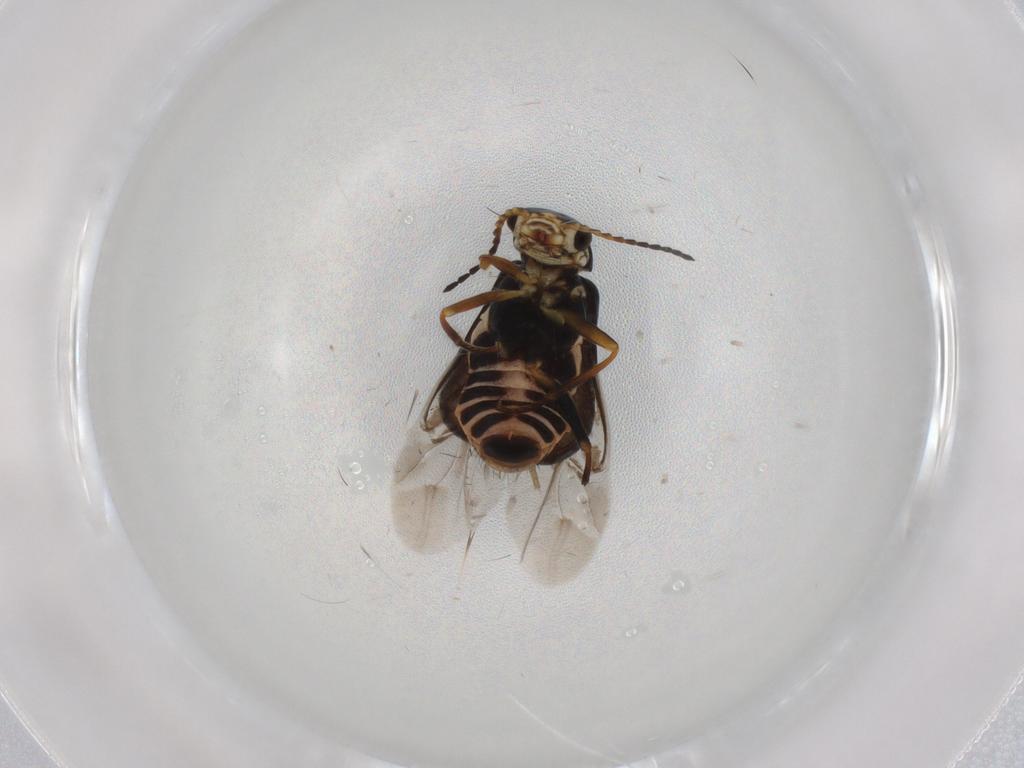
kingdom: Animalia
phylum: Arthropoda
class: Insecta
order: Coleoptera
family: Melyridae
